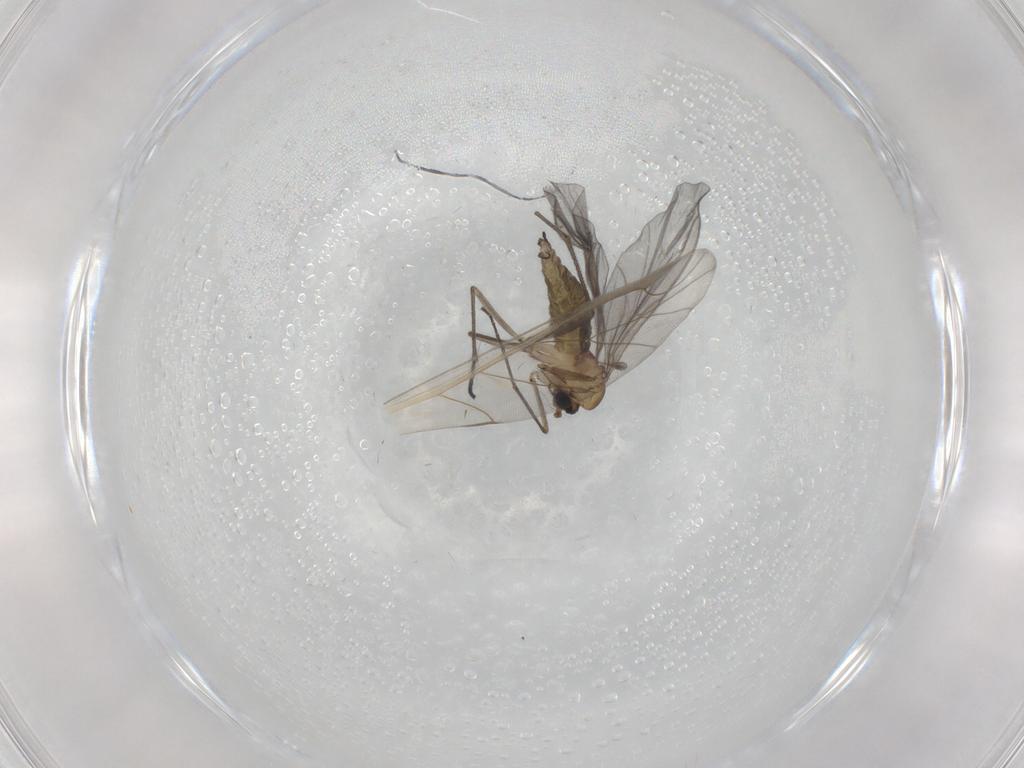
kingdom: Animalia
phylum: Arthropoda
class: Insecta
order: Diptera
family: Sciaridae
